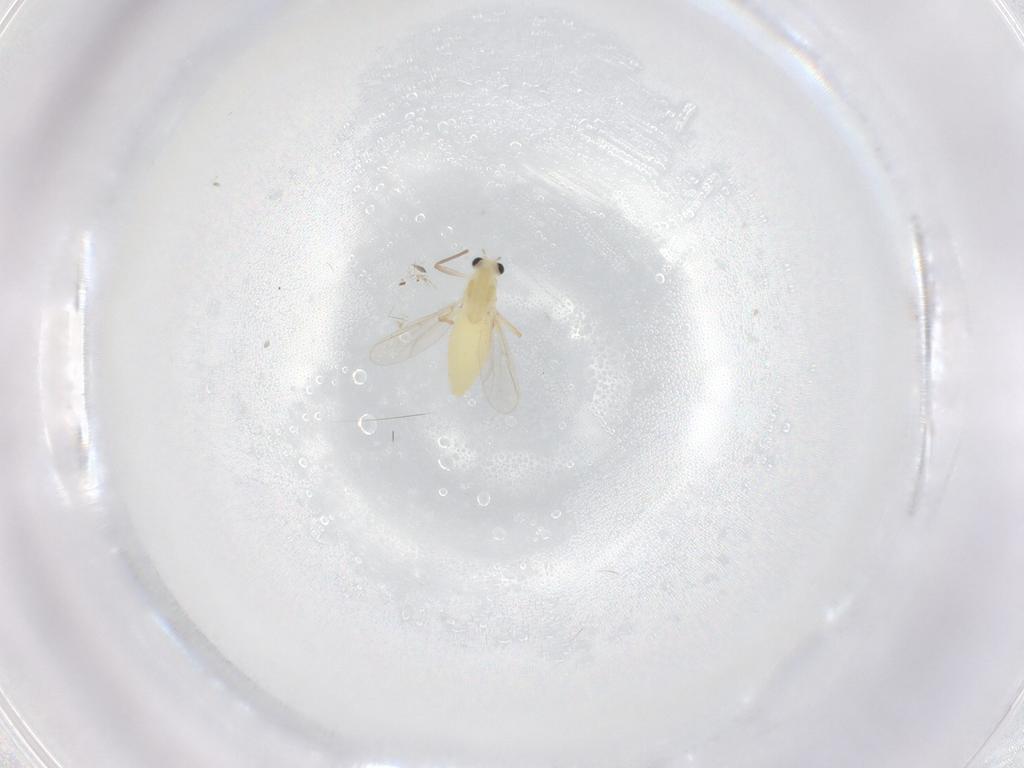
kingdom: Animalia
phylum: Arthropoda
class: Insecta
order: Diptera
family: Chironomidae
